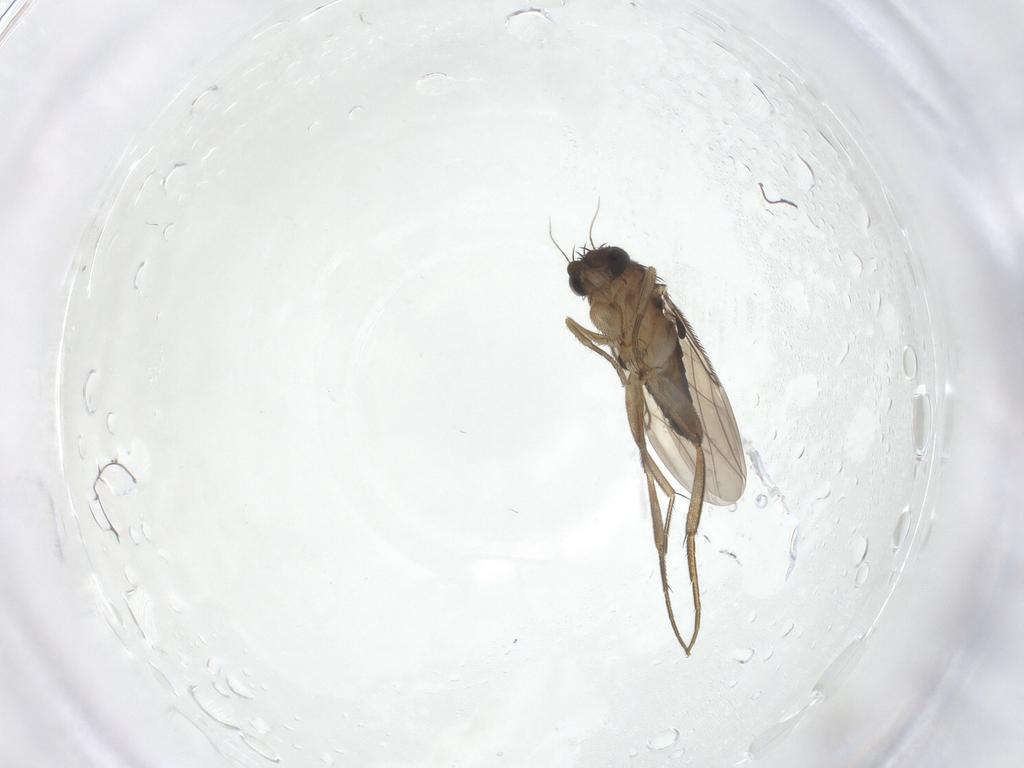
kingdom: Animalia
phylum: Arthropoda
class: Insecta
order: Diptera
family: Phoridae
